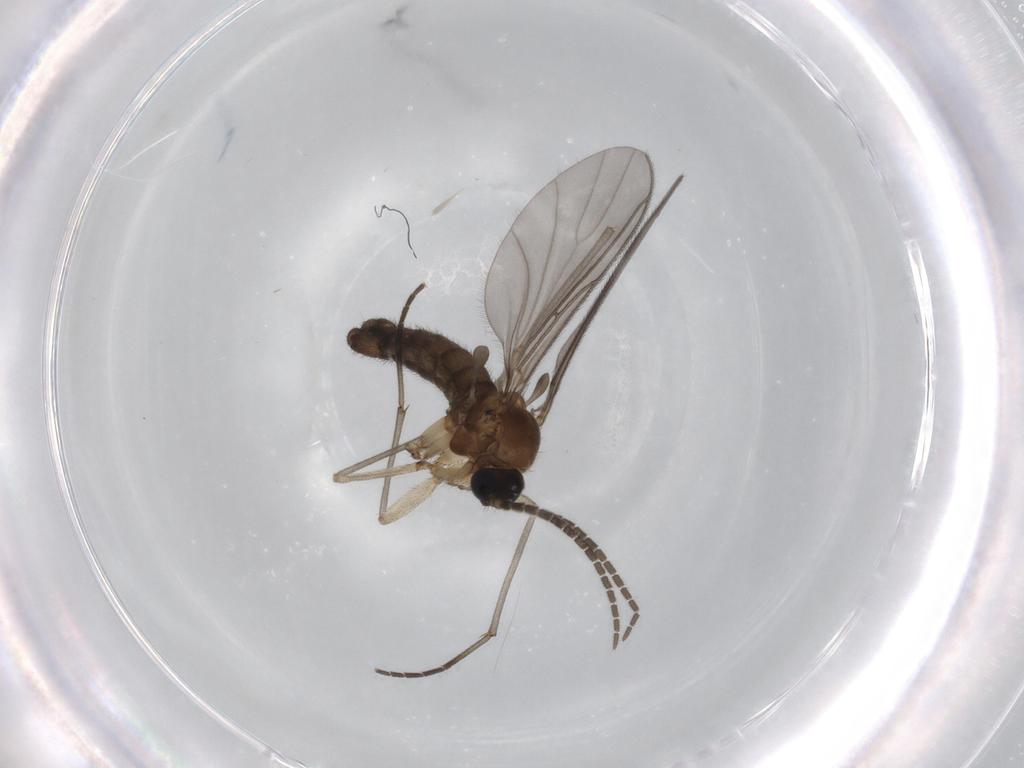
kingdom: Animalia
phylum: Arthropoda
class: Insecta
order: Diptera
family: Sciaridae
